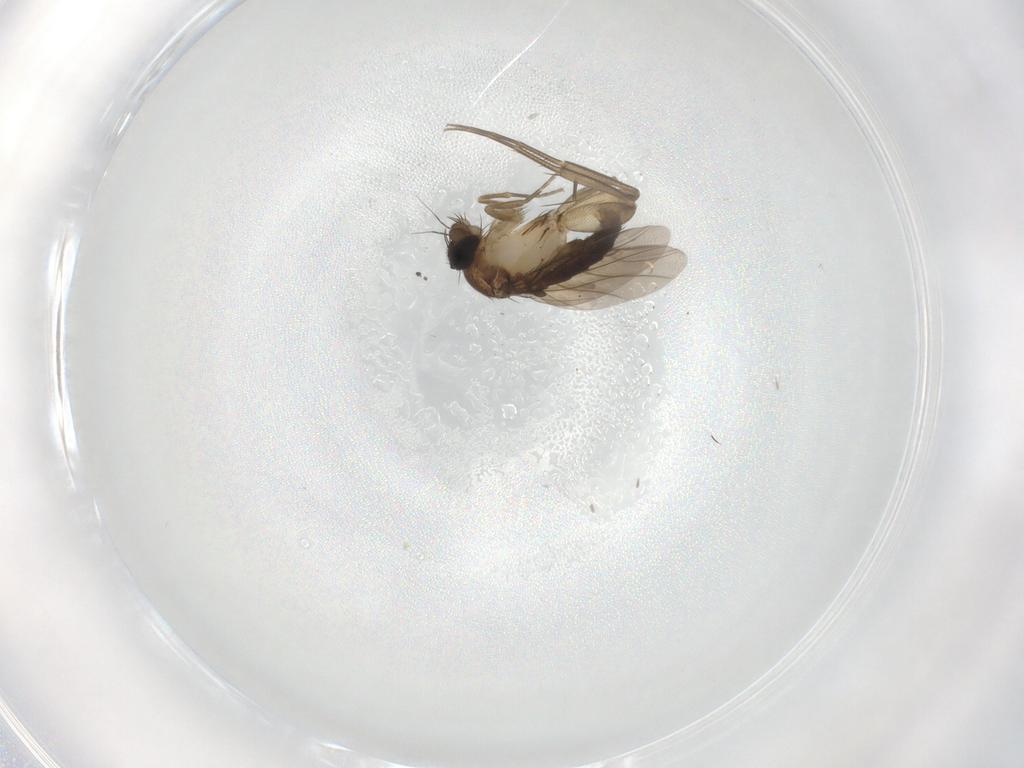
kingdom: Animalia
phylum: Arthropoda
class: Insecta
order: Diptera
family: Phoridae
